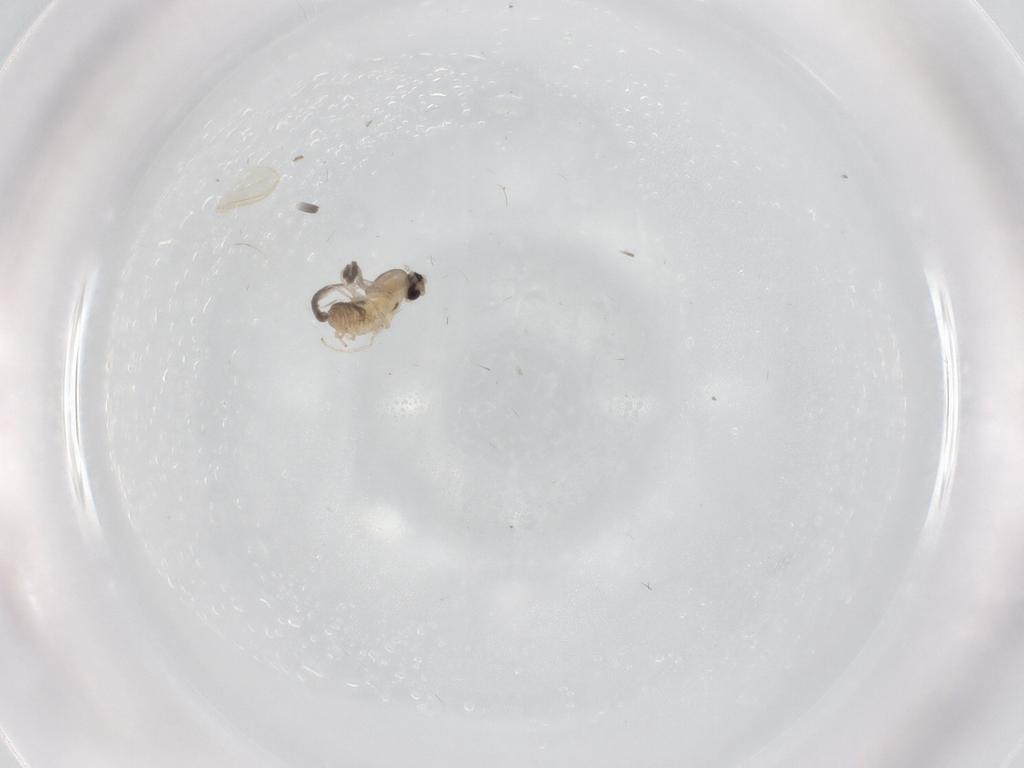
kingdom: Animalia
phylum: Arthropoda
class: Insecta
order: Diptera
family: Cecidomyiidae
